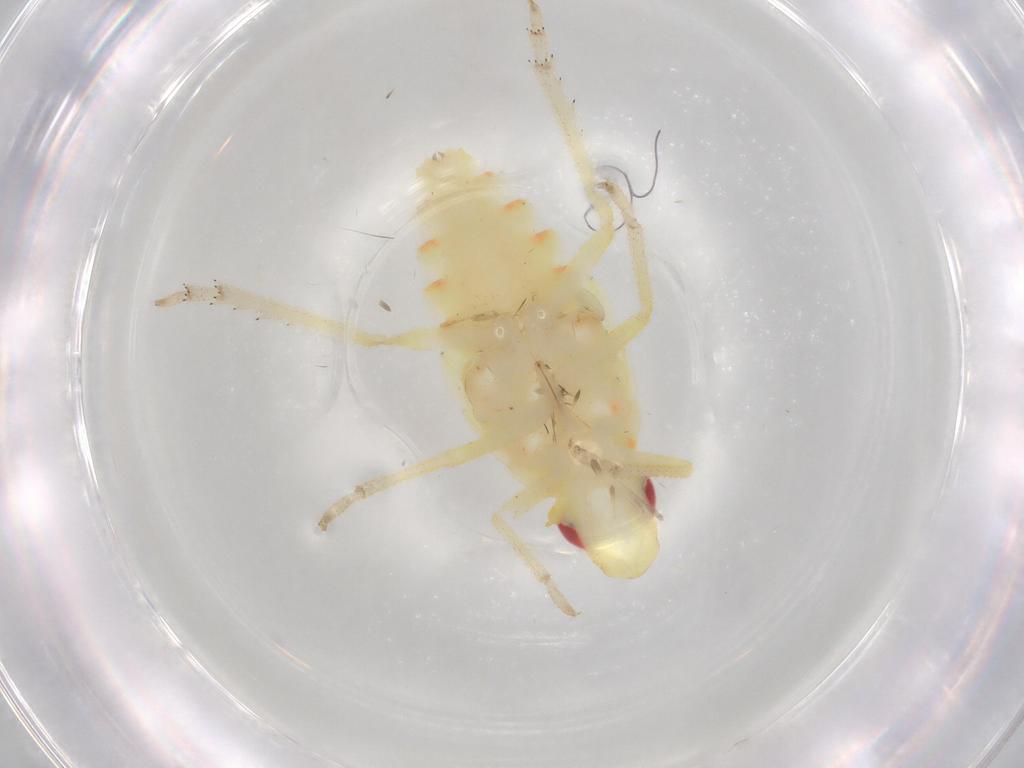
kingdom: Animalia
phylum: Arthropoda
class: Insecta
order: Hemiptera
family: Tropiduchidae
